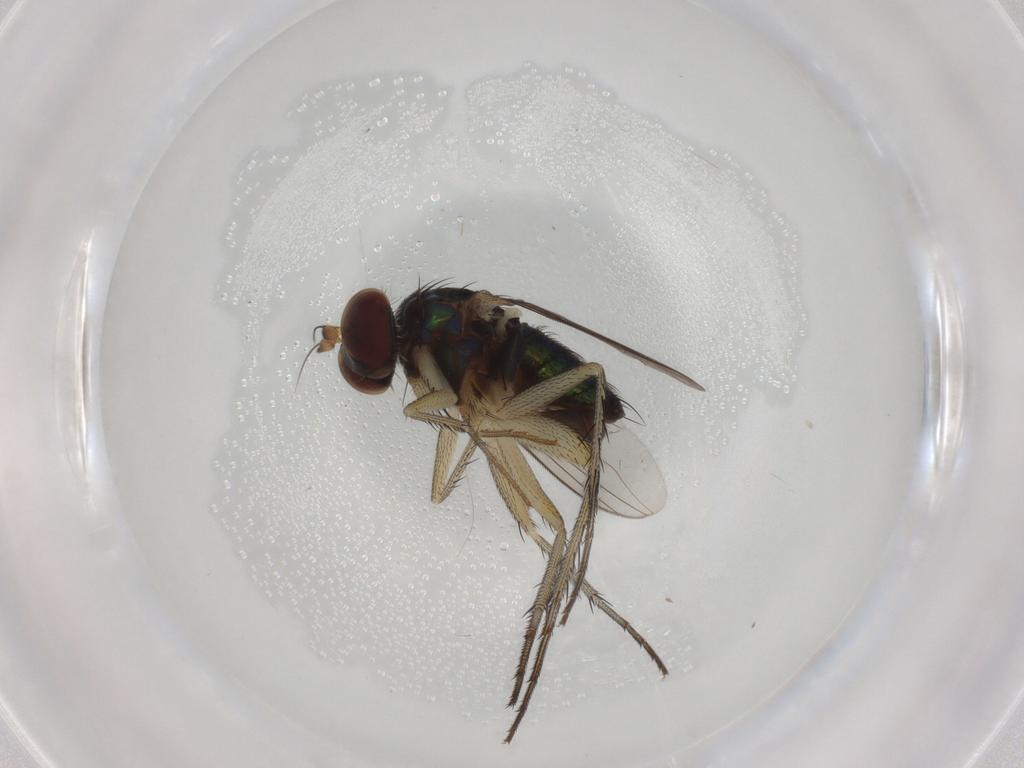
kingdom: Animalia
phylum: Arthropoda
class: Insecta
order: Diptera
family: Dolichopodidae
